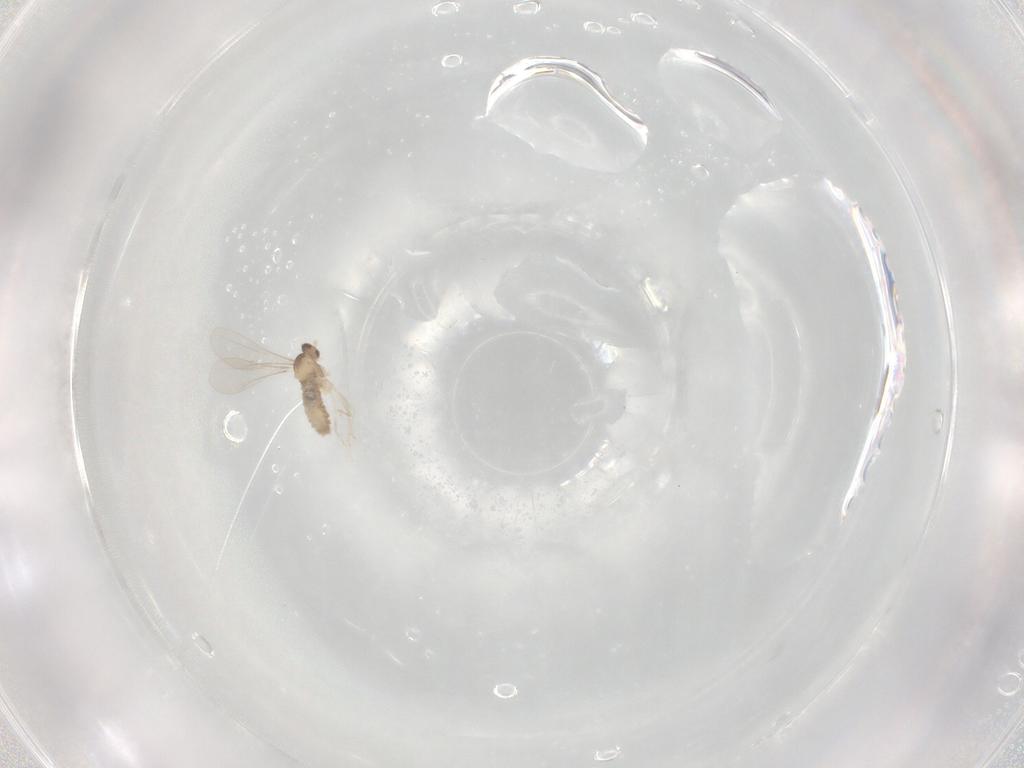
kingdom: Animalia
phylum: Arthropoda
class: Insecta
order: Diptera
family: Cecidomyiidae
